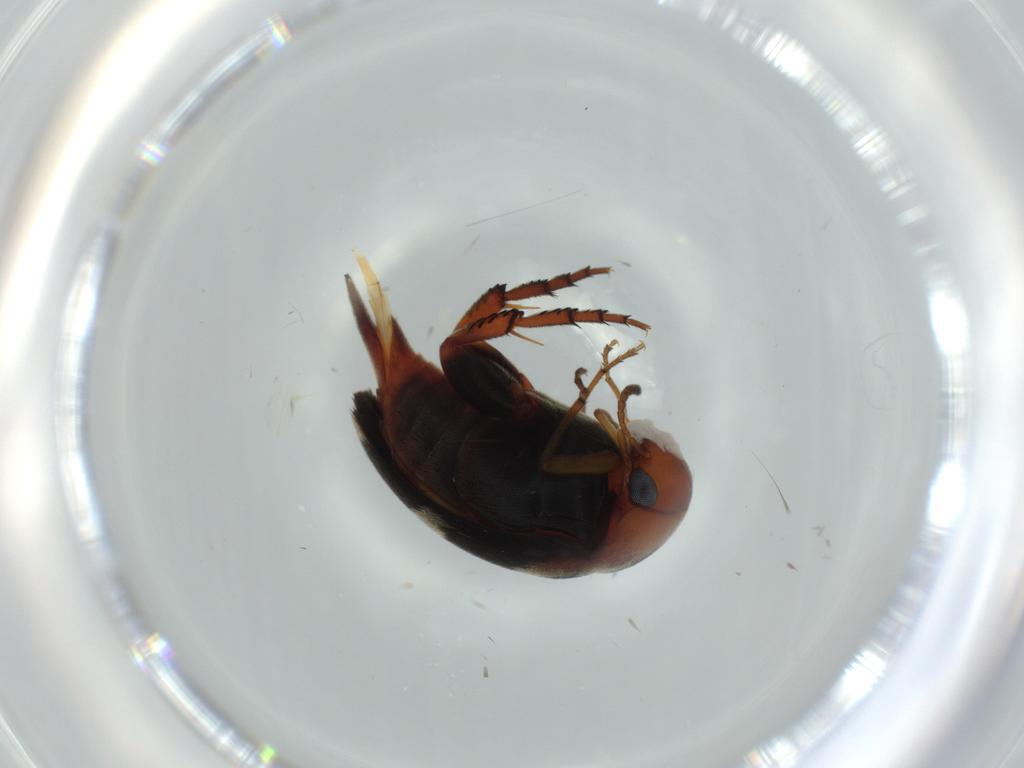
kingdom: Animalia
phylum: Arthropoda
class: Insecta
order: Coleoptera
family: Mordellidae
